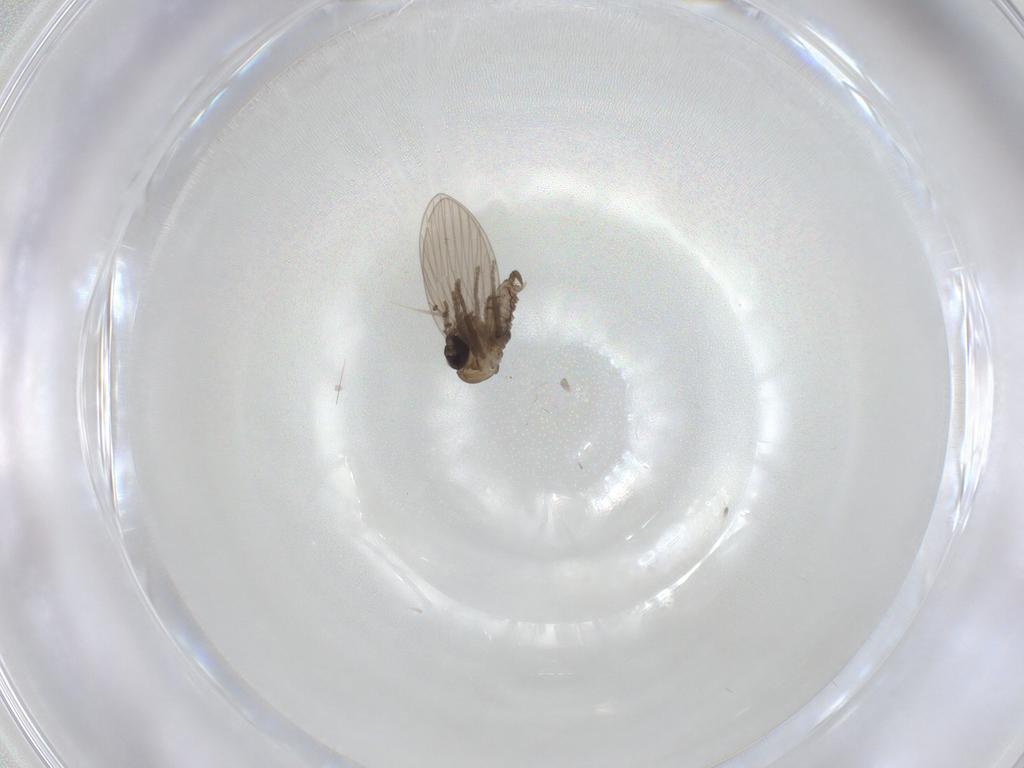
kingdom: Animalia
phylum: Arthropoda
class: Insecta
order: Diptera
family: Psychodidae
